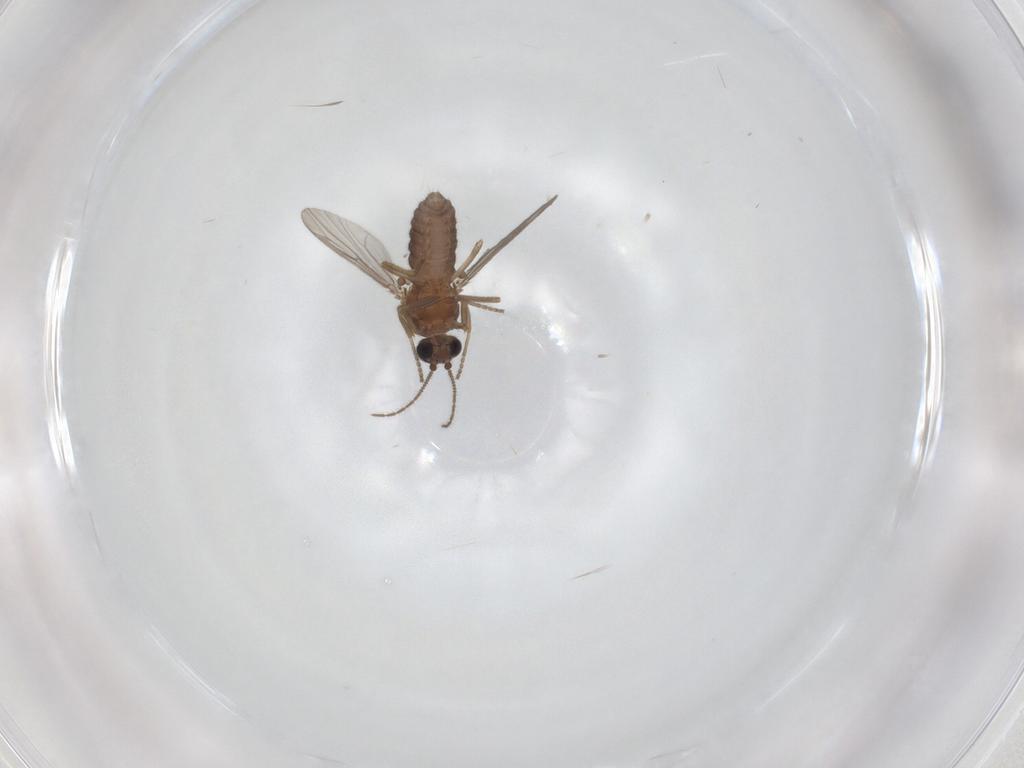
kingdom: Animalia
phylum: Arthropoda
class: Insecta
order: Diptera
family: Ceratopogonidae
